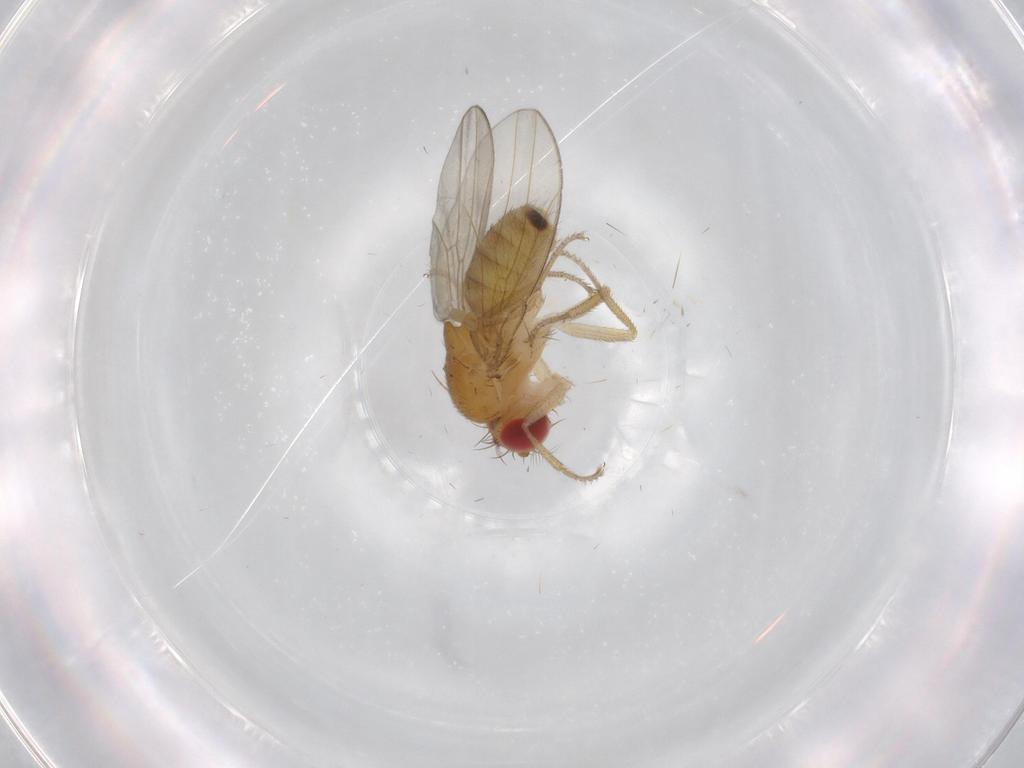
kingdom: Animalia
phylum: Arthropoda
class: Insecta
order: Diptera
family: Drosophilidae
